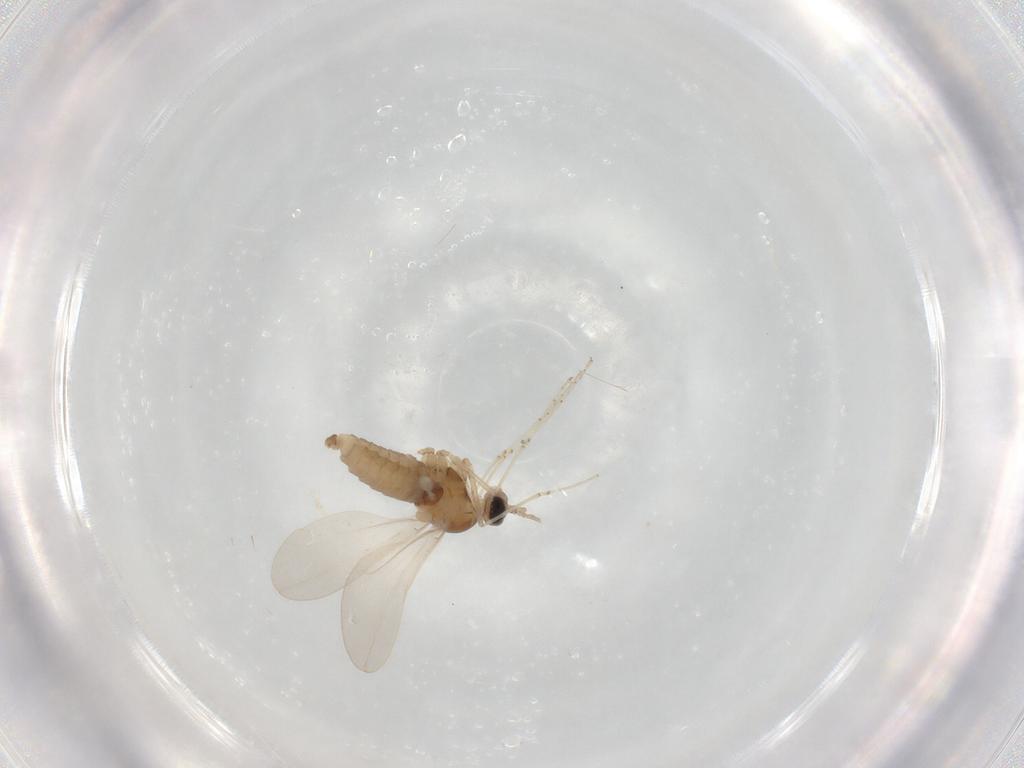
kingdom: Animalia
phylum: Arthropoda
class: Insecta
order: Diptera
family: Cecidomyiidae
